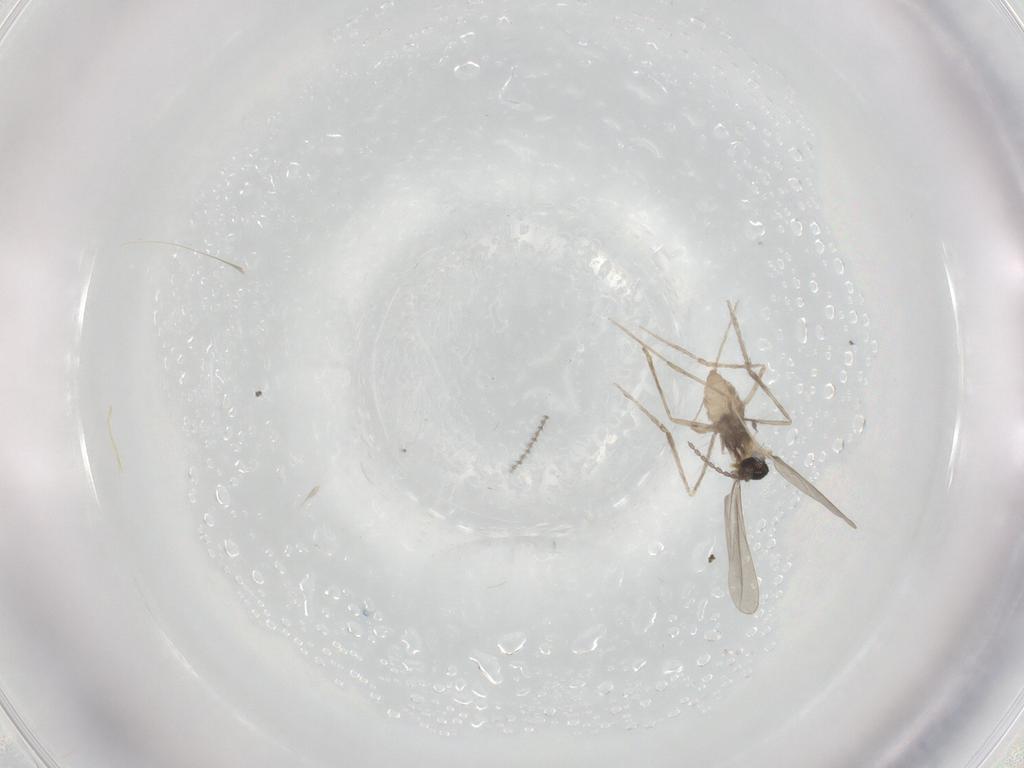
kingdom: Animalia
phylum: Arthropoda
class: Insecta
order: Diptera
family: Cecidomyiidae
